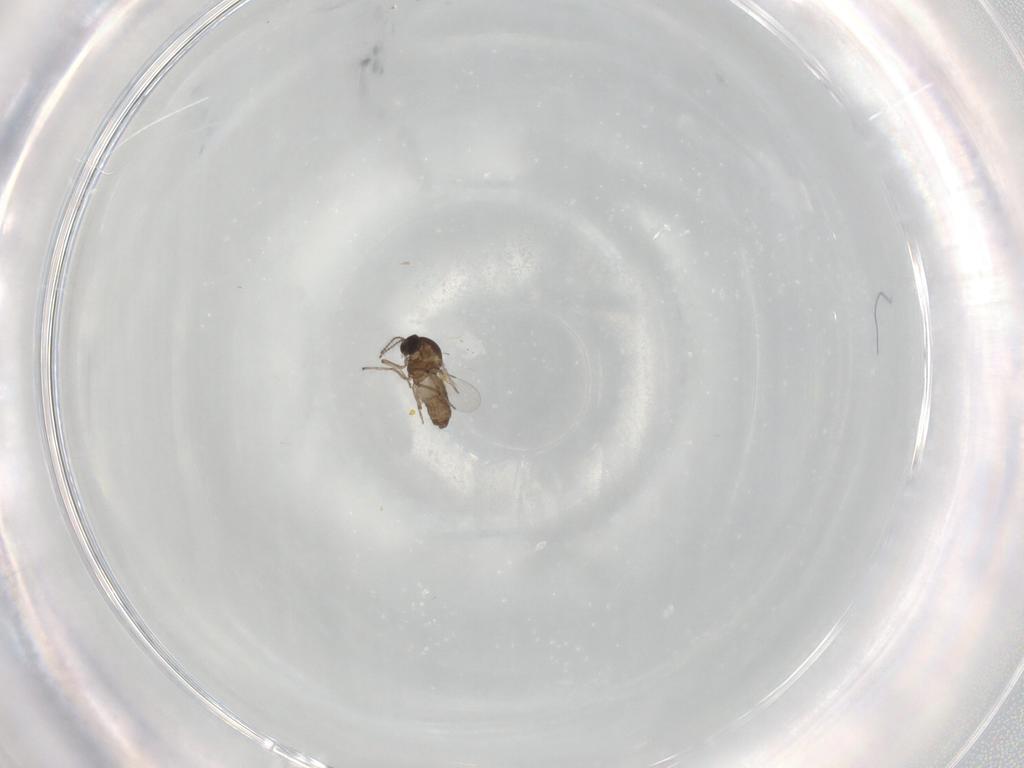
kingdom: Animalia
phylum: Arthropoda
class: Insecta
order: Diptera
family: Ceratopogonidae
